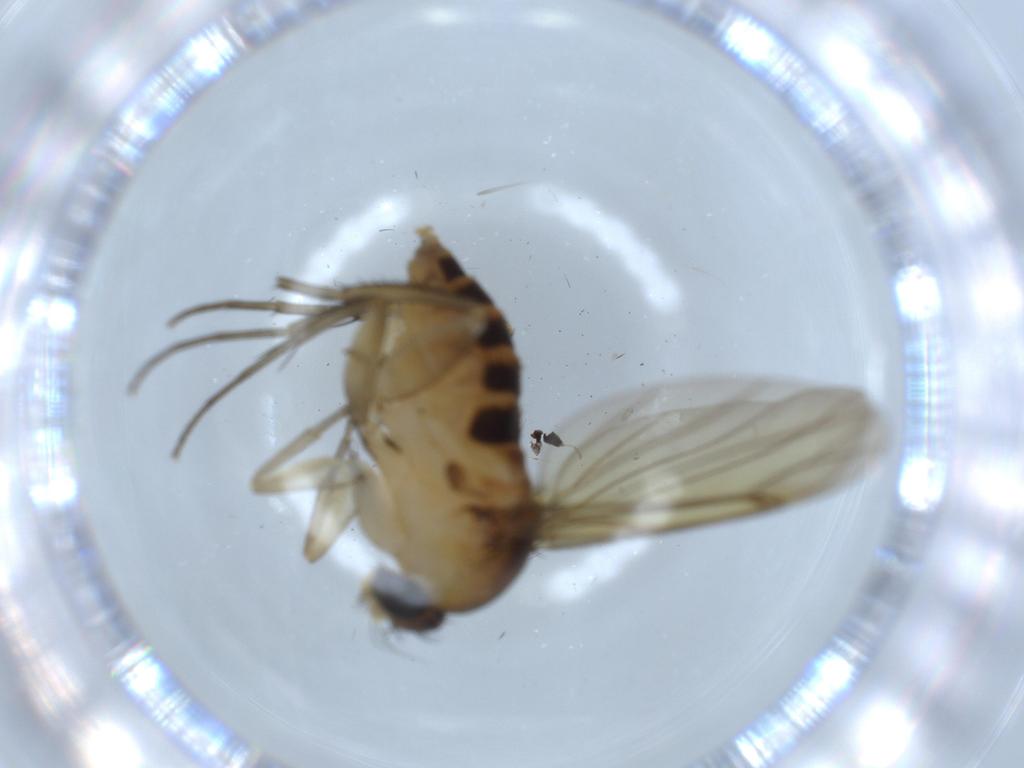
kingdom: Animalia
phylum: Arthropoda
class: Insecta
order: Diptera
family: Psychodidae
